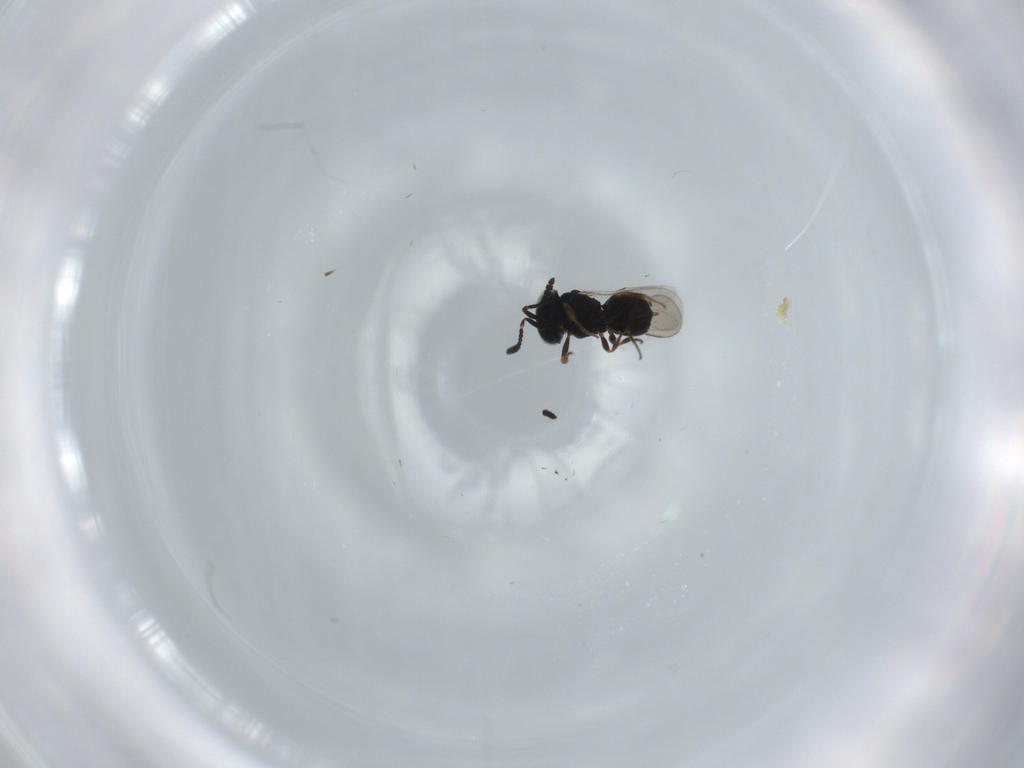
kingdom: Animalia
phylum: Arthropoda
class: Insecta
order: Hymenoptera
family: Scelionidae
